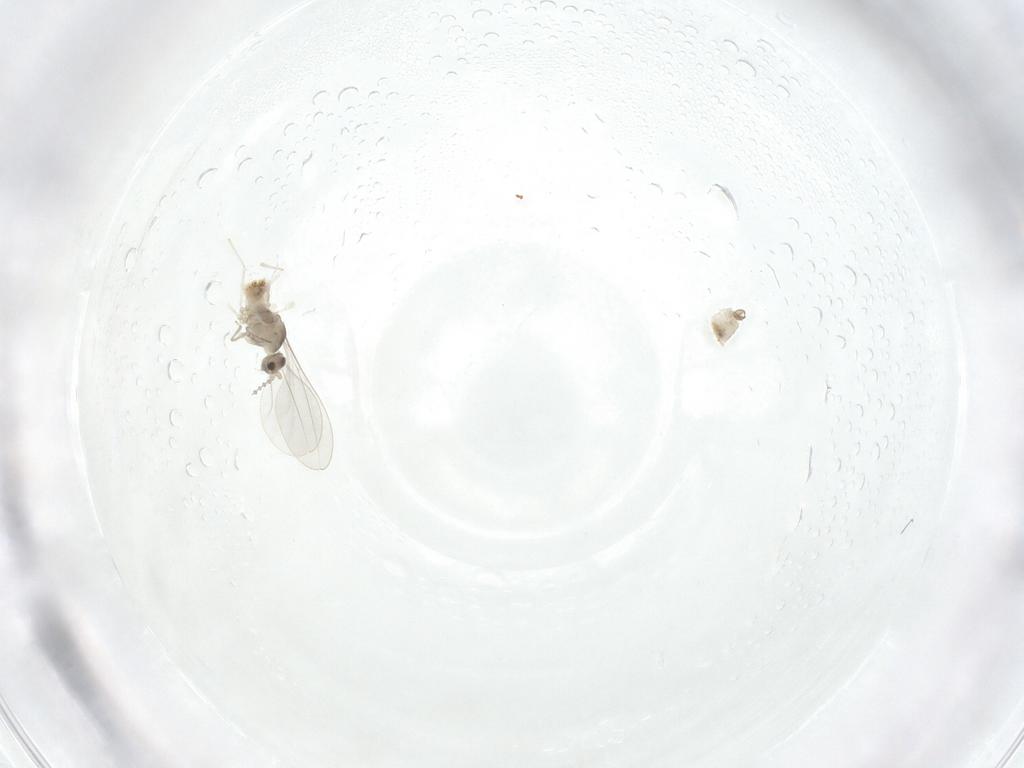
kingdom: Animalia
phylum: Arthropoda
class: Insecta
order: Diptera
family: Cecidomyiidae
